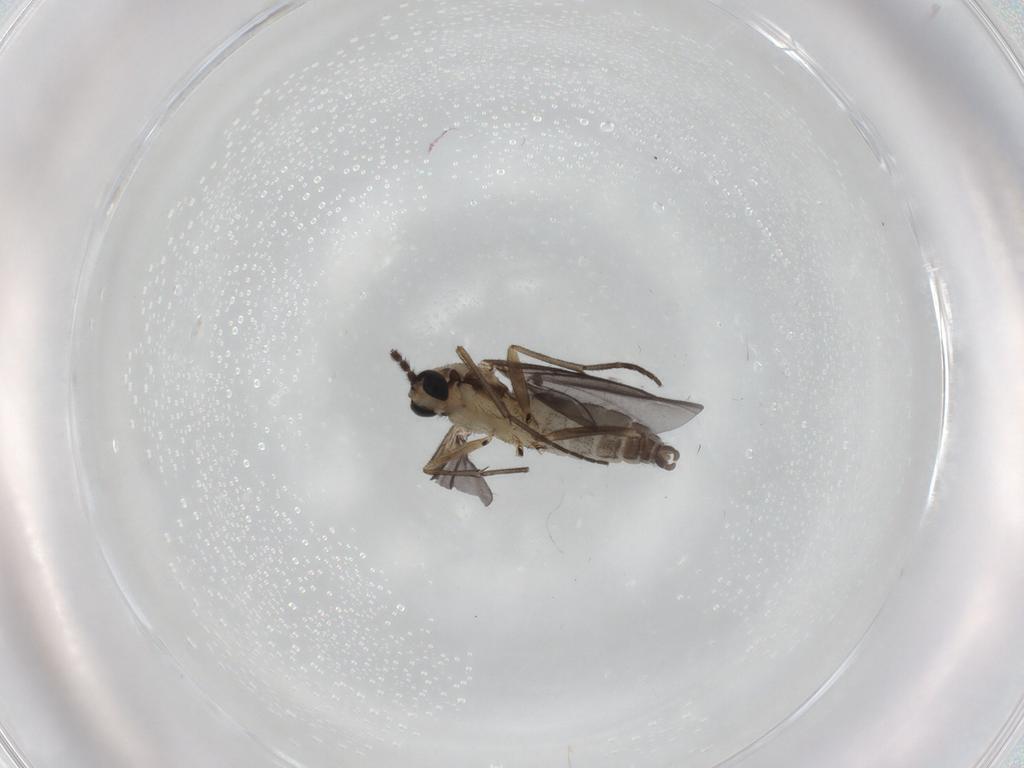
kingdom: Animalia
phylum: Arthropoda
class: Insecta
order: Diptera
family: Sciaridae
